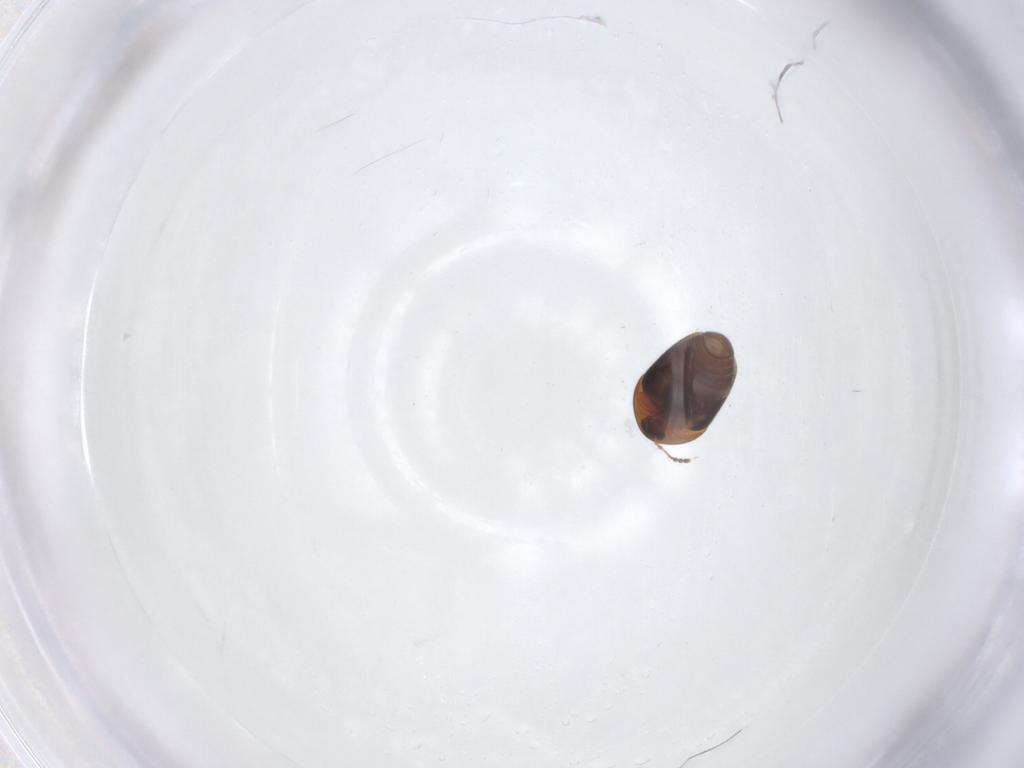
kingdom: Animalia
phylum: Arthropoda
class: Insecta
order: Coleoptera
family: Corylophidae
